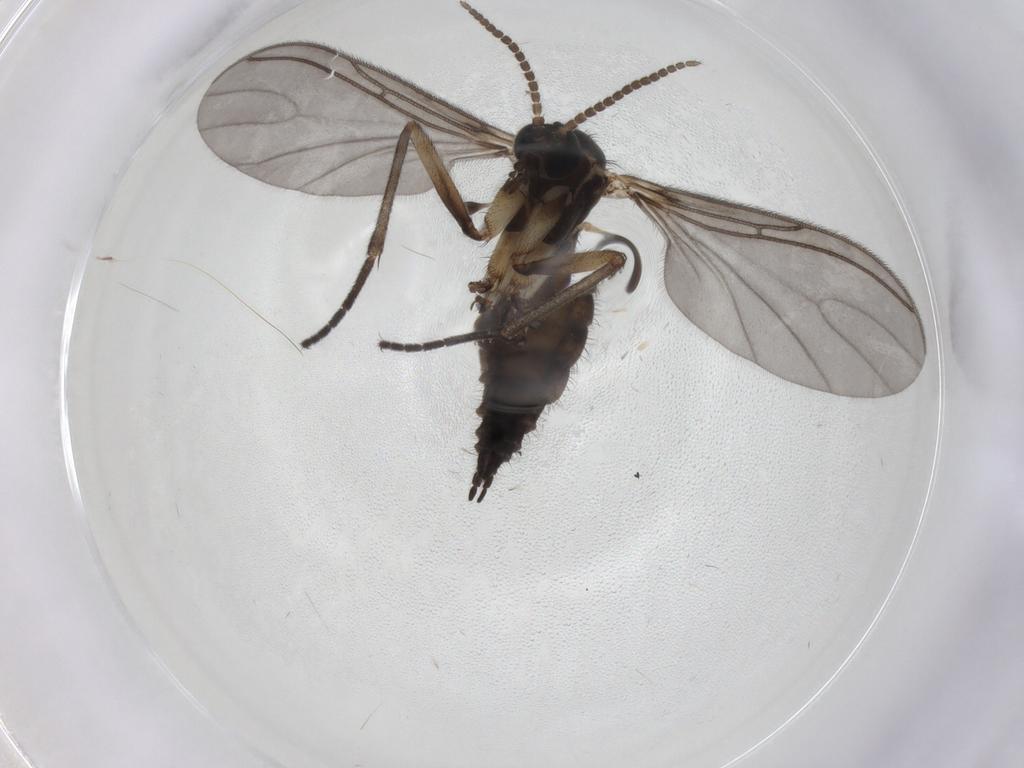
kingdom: Animalia
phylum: Arthropoda
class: Insecta
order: Diptera
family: Sciaridae
